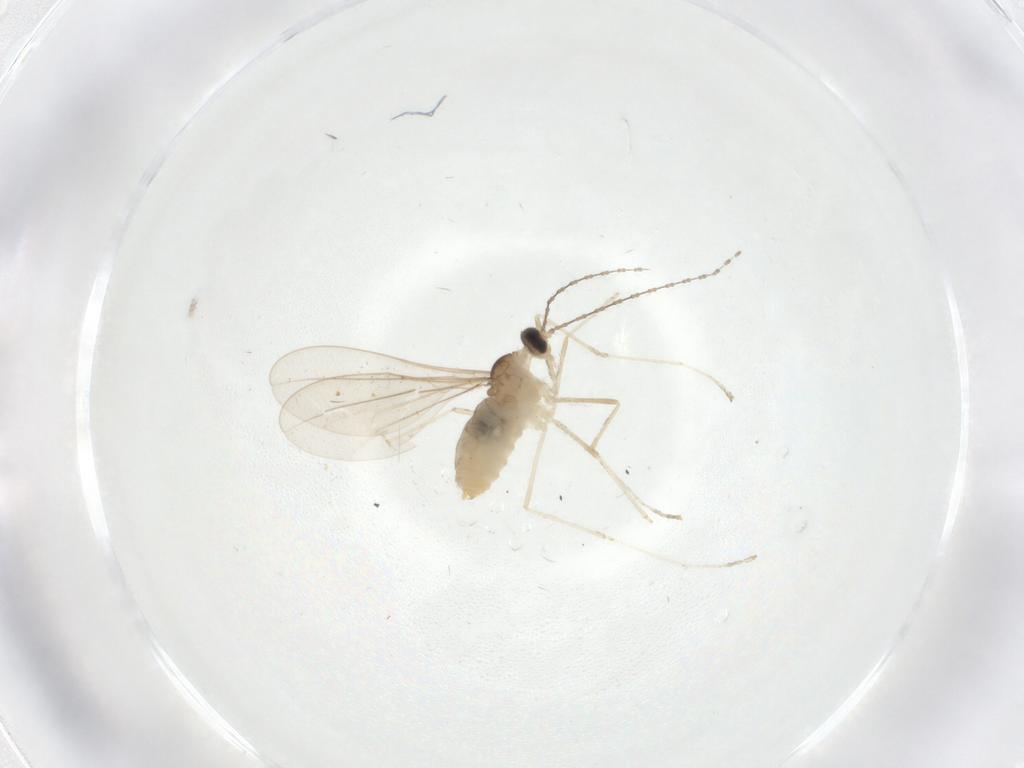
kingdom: Animalia
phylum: Arthropoda
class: Insecta
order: Diptera
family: Cecidomyiidae
